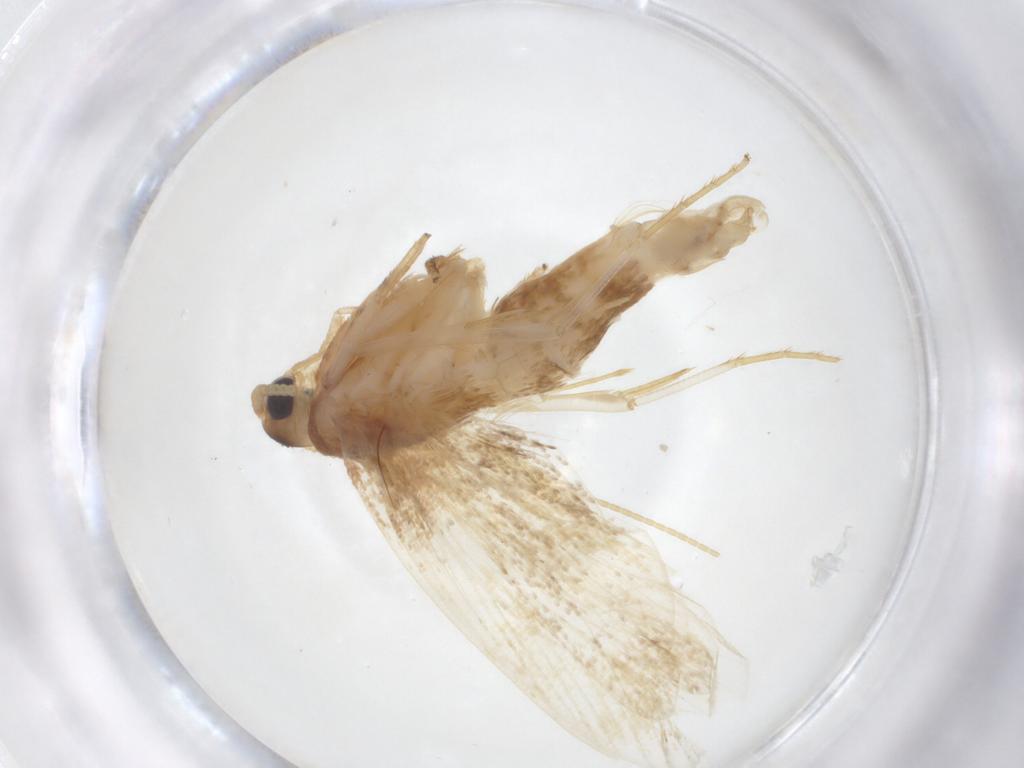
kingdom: Animalia
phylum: Arthropoda
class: Insecta
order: Lepidoptera
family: Lecithoceridae
